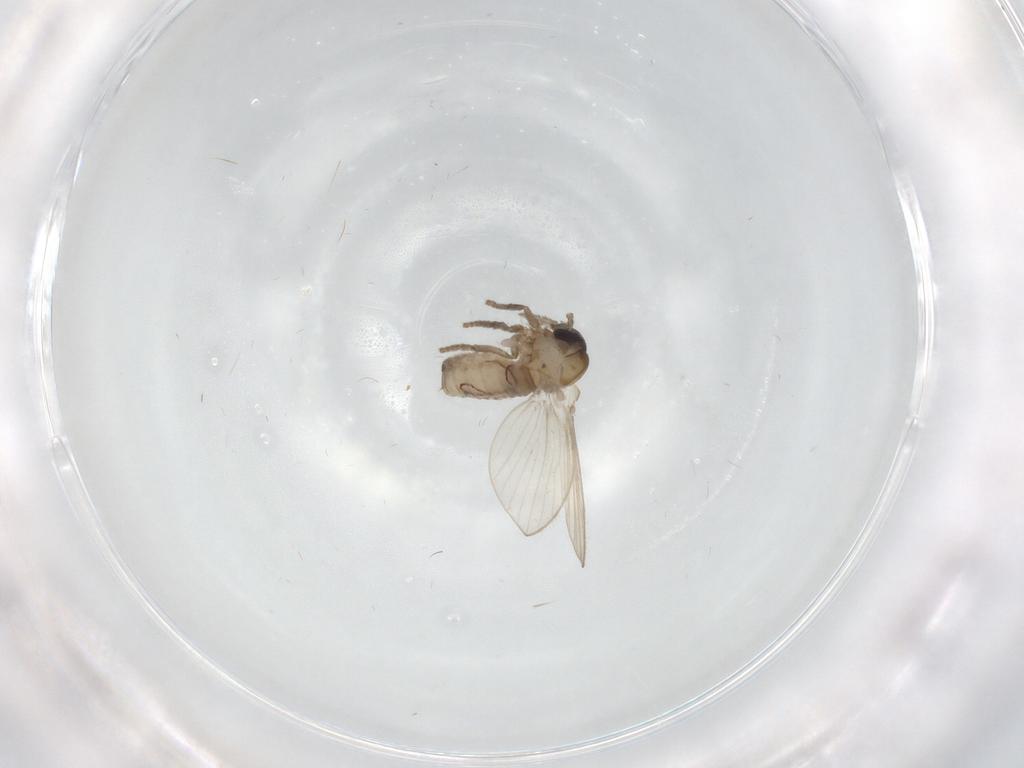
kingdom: Animalia
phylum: Arthropoda
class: Insecta
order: Diptera
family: Psychodidae
